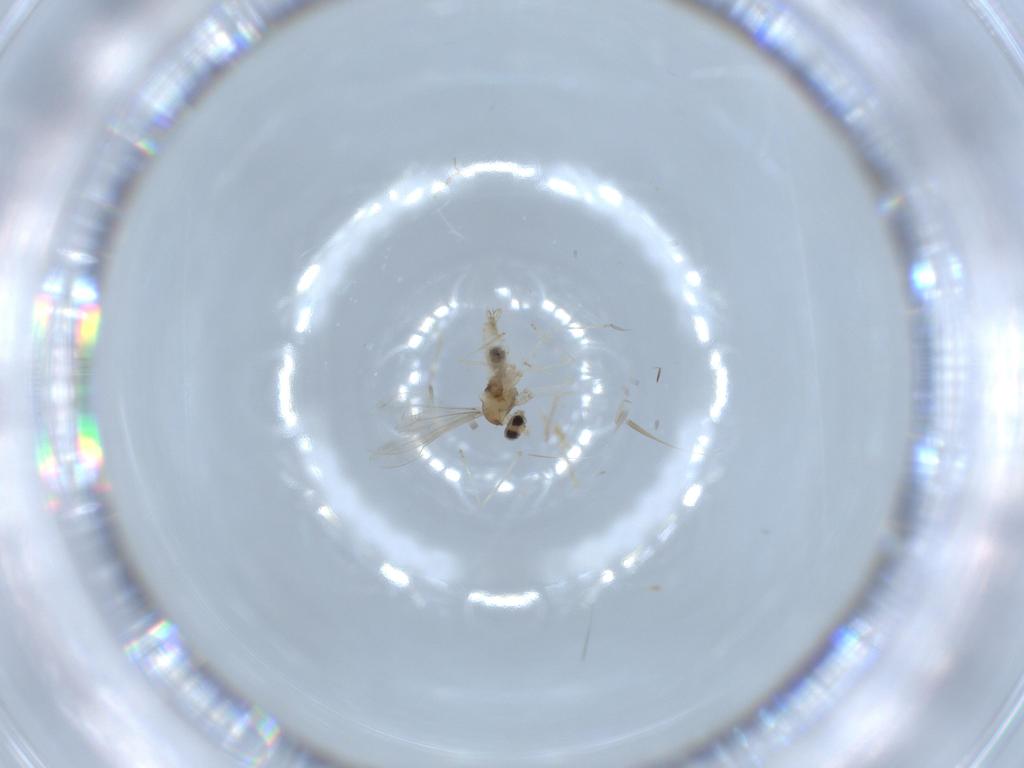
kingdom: Animalia
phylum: Arthropoda
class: Insecta
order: Diptera
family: Cecidomyiidae
